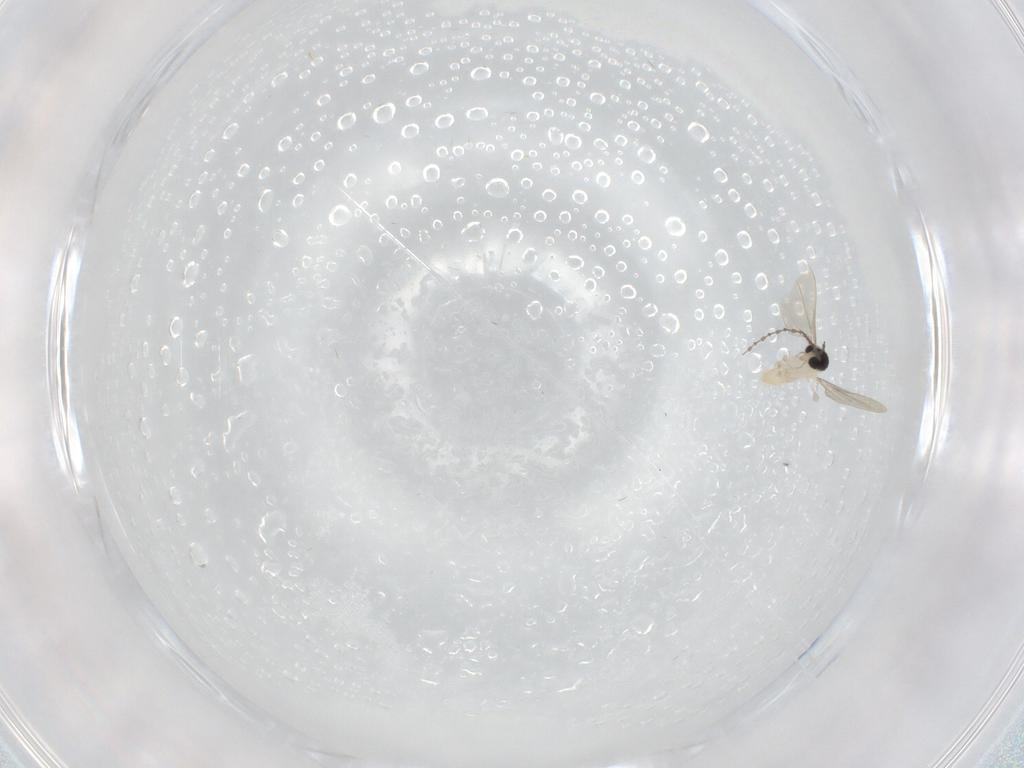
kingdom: Animalia
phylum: Arthropoda
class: Insecta
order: Diptera
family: Cecidomyiidae
